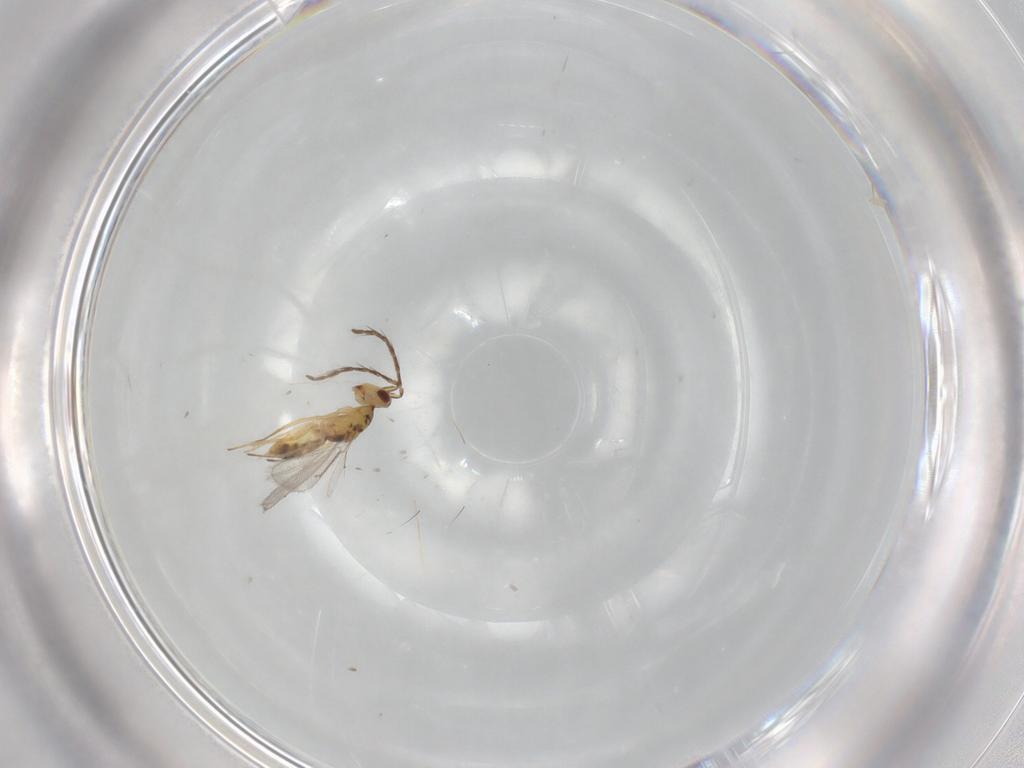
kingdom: Animalia
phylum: Arthropoda
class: Insecta
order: Hymenoptera
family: Eulophidae
